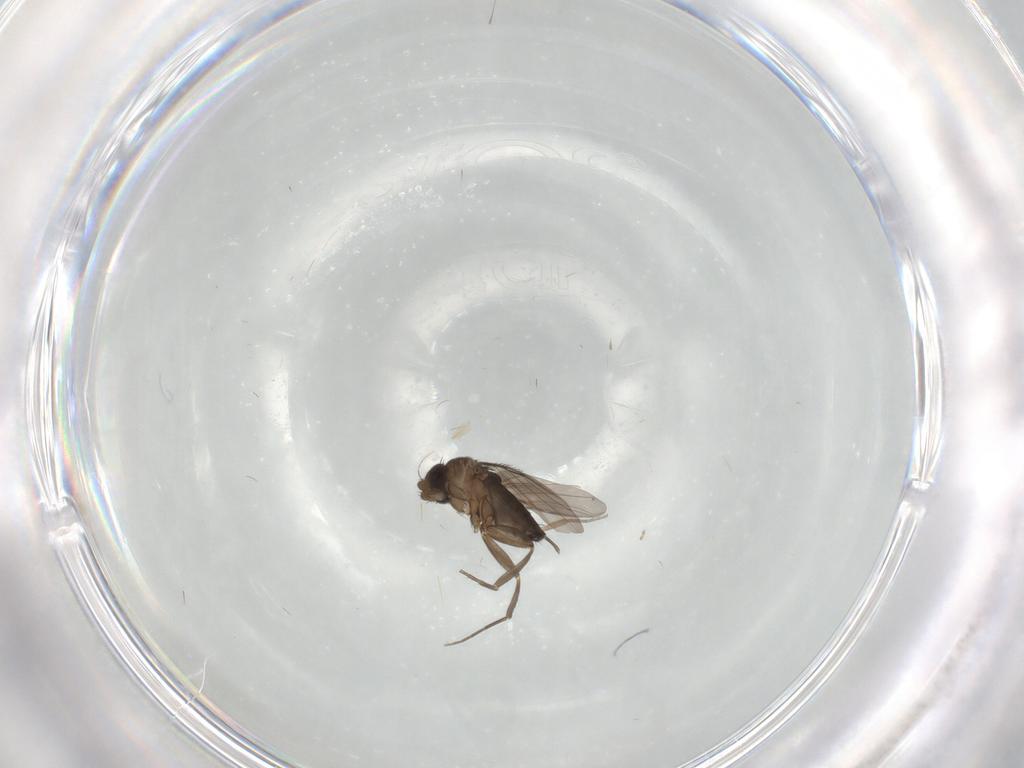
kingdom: Animalia
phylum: Arthropoda
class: Insecta
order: Diptera
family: Phoridae
